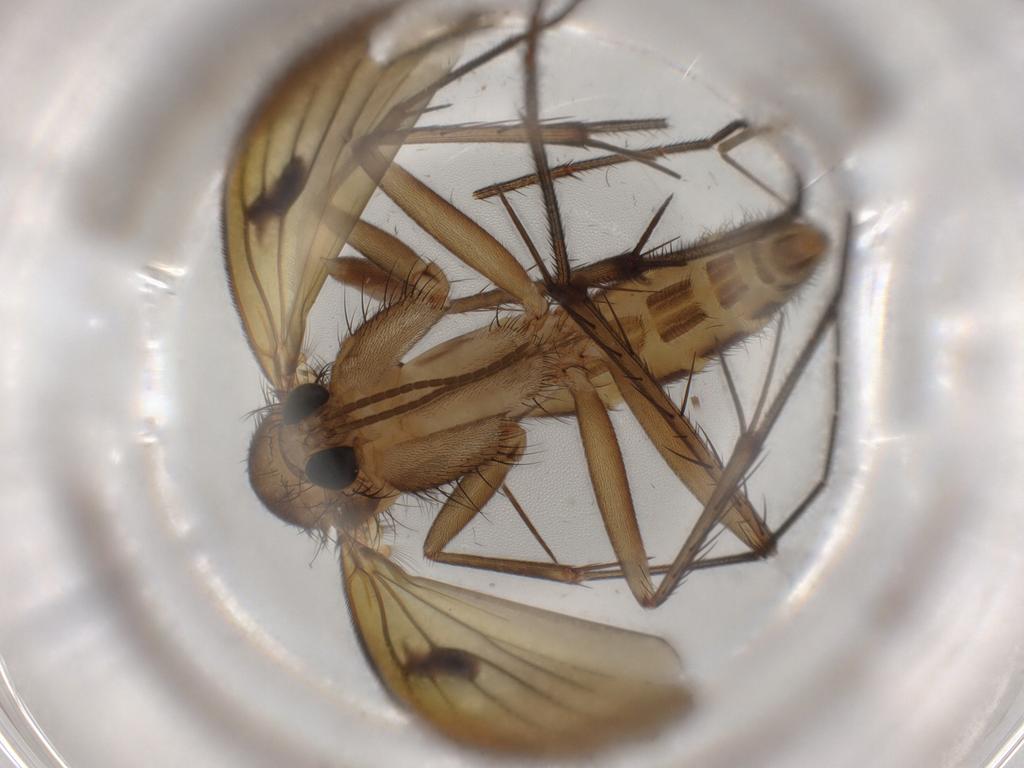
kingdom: Animalia
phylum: Arthropoda
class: Insecta
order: Diptera
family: Limoniidae
